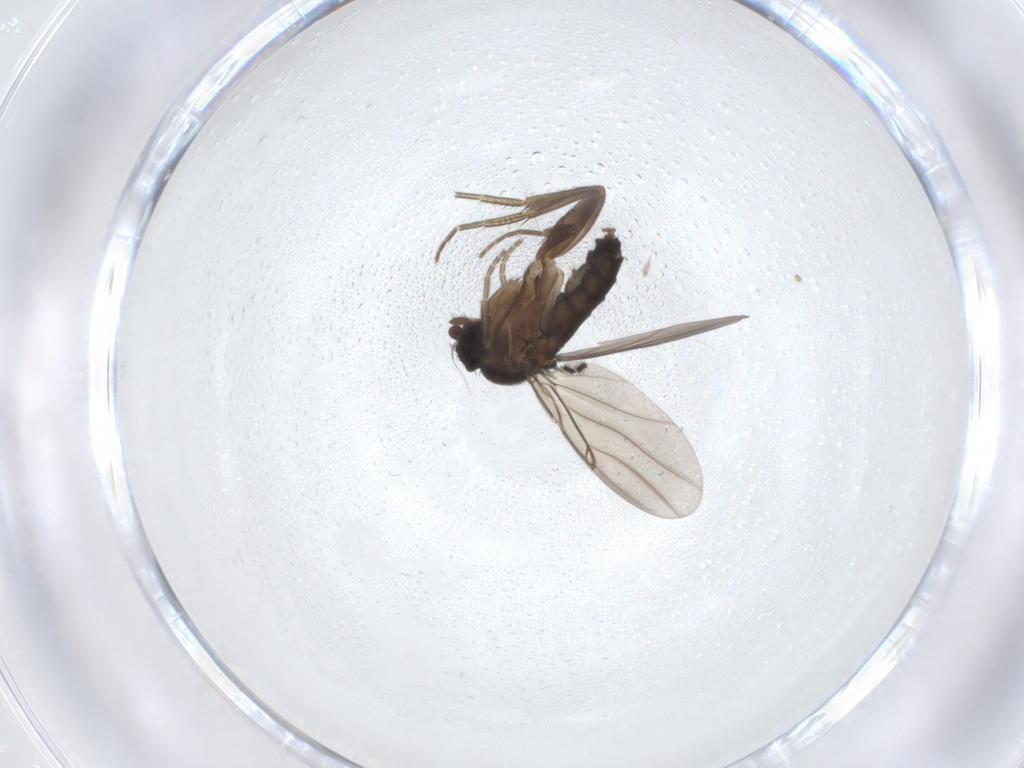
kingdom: Animalia
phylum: Arthropoda
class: Insecta
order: Diptera
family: Phoridae
